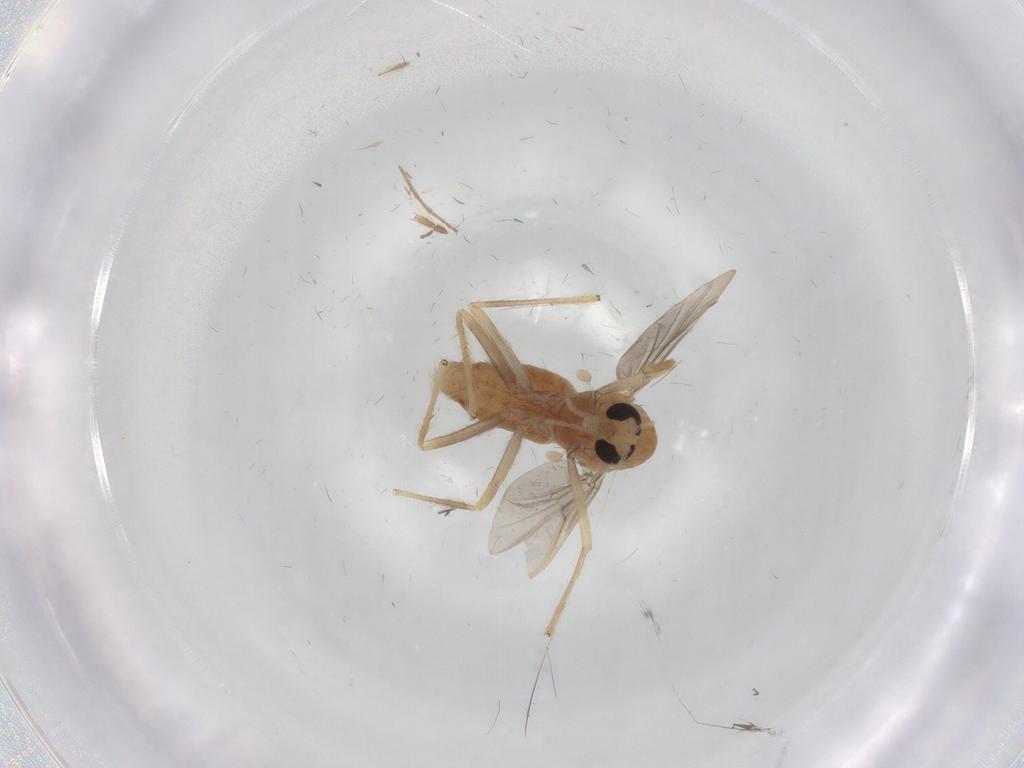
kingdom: Animalia
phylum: Arthropoda
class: Insecta
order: Diptera
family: Chironomidae
